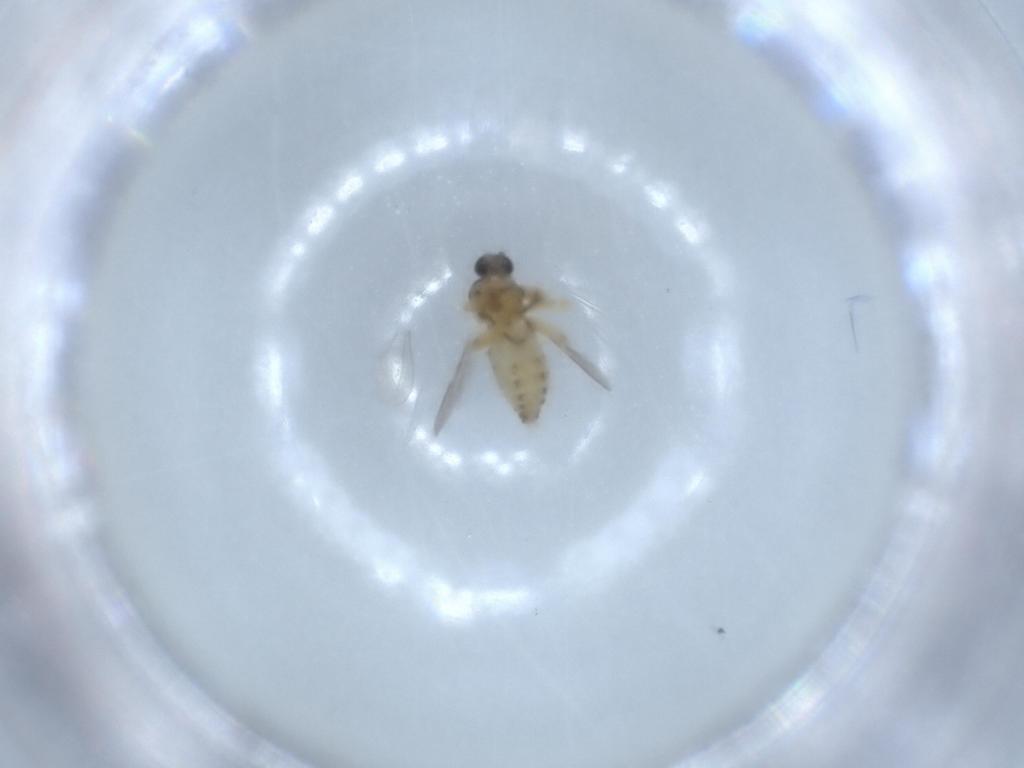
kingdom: Animalia
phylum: Arthropoda
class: Insecta
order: Diptera
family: Ceratopogonidae
